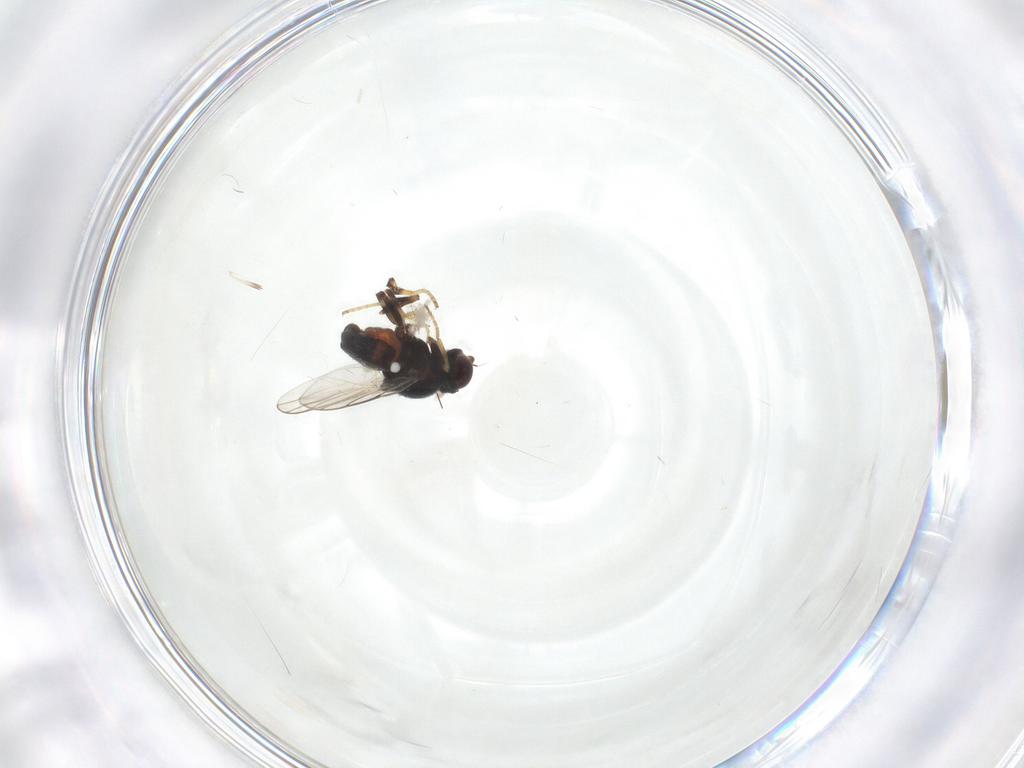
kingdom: Animalia
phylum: Arthropoda
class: Insecta
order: Diptera
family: Chloropidae
